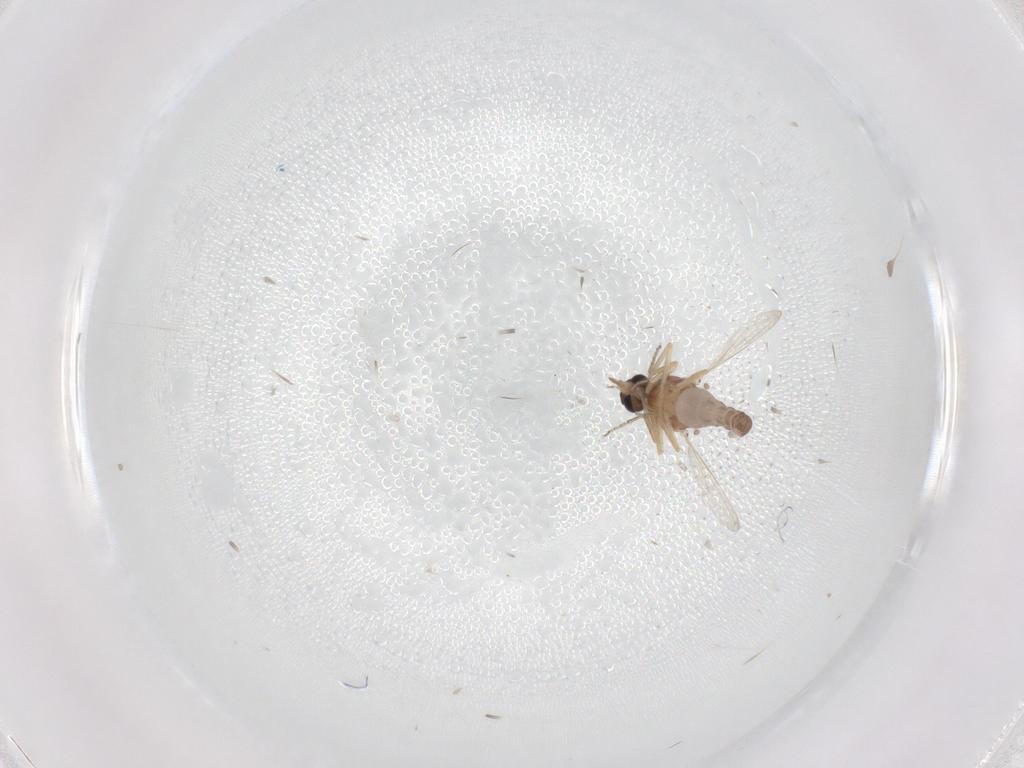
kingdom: Animalia
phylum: Arthropoda
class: Insecta
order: Diptera
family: Ceratopogonidae
